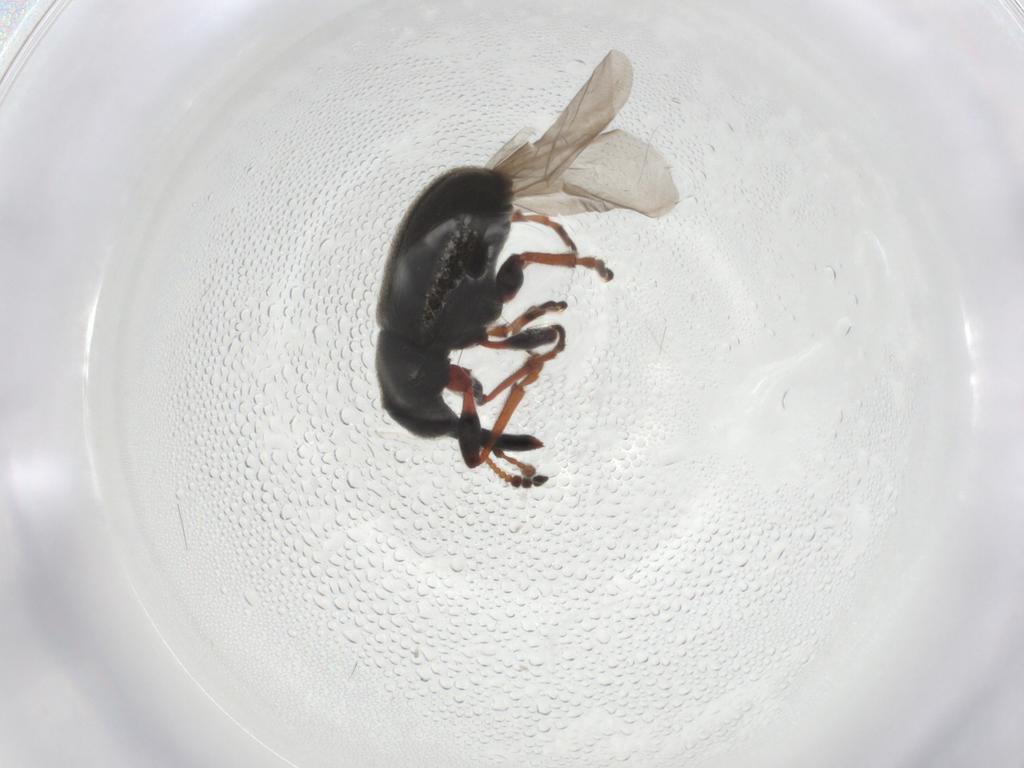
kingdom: Animalia
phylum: Arthropoda
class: Insecta
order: Coleoptera
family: Attelabidae
